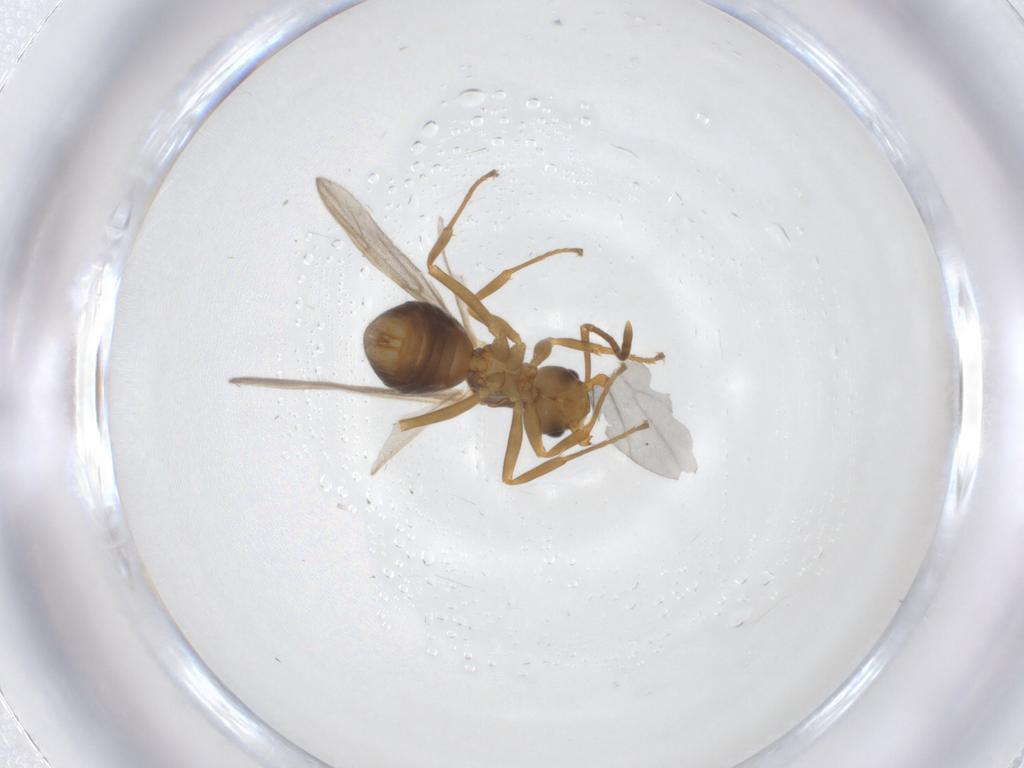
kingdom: Animalia
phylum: Arthropoda
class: Insecta
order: Hymenoptera
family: Formicidae
